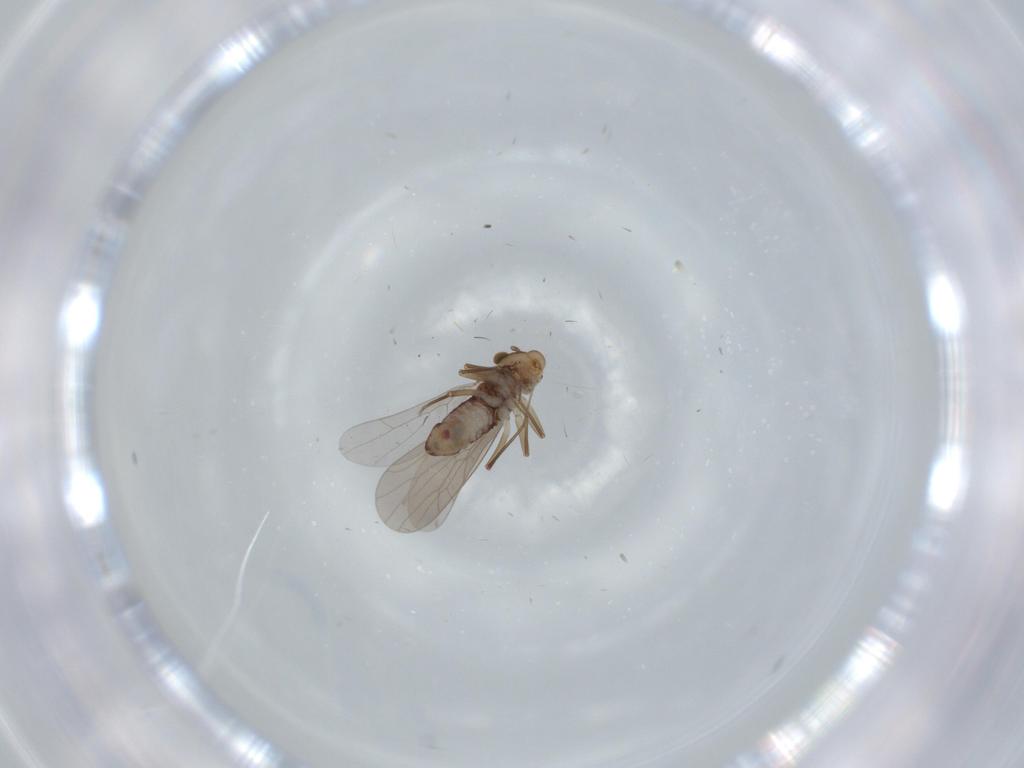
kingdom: Animalia
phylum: Arthropoda
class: Insecta
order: Psocodea
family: Lepidopsocidae
